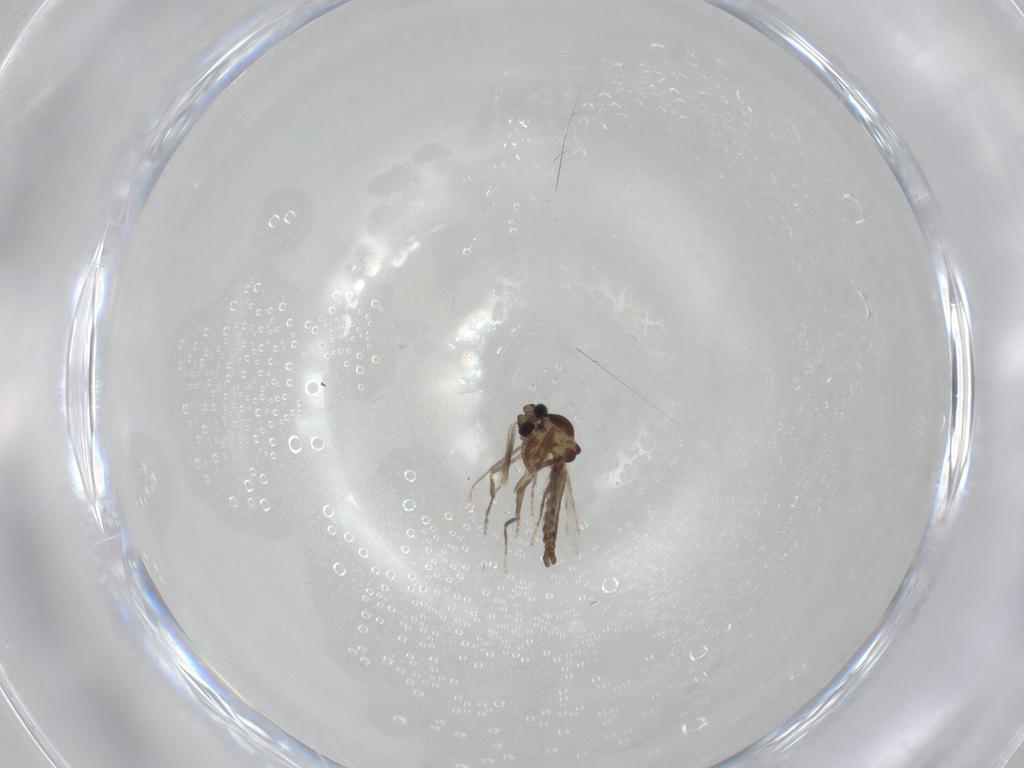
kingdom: Animalia
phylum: Arthropoda
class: Insecta
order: Diptera
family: Ceratopogonidae
